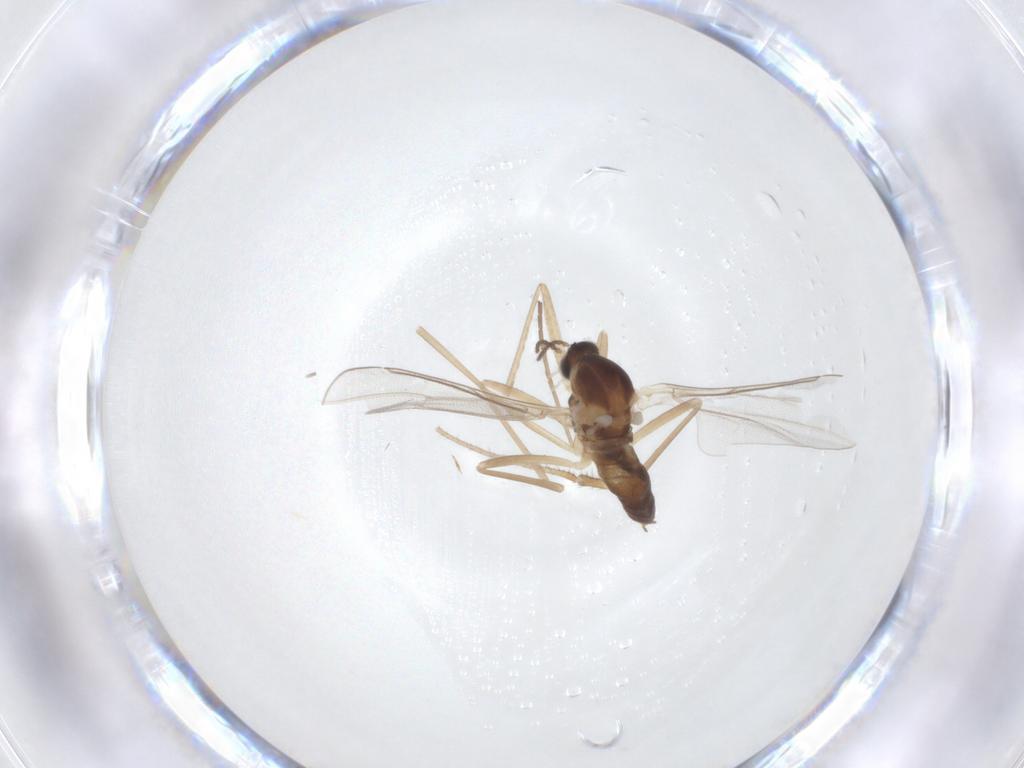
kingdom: Animalia
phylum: Arthropoda
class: Insecta
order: Diptera
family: Cecidomyiidae
